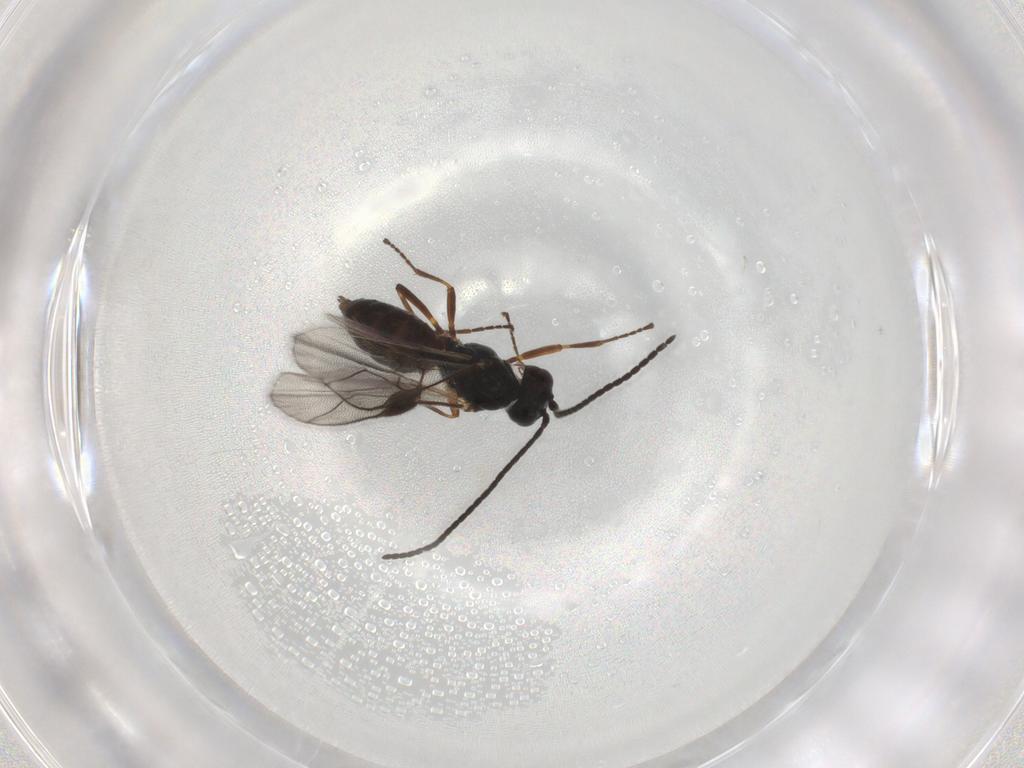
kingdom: Animalia
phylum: Arthropoda
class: Insecta
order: Hymenoptera
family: Braconidae
